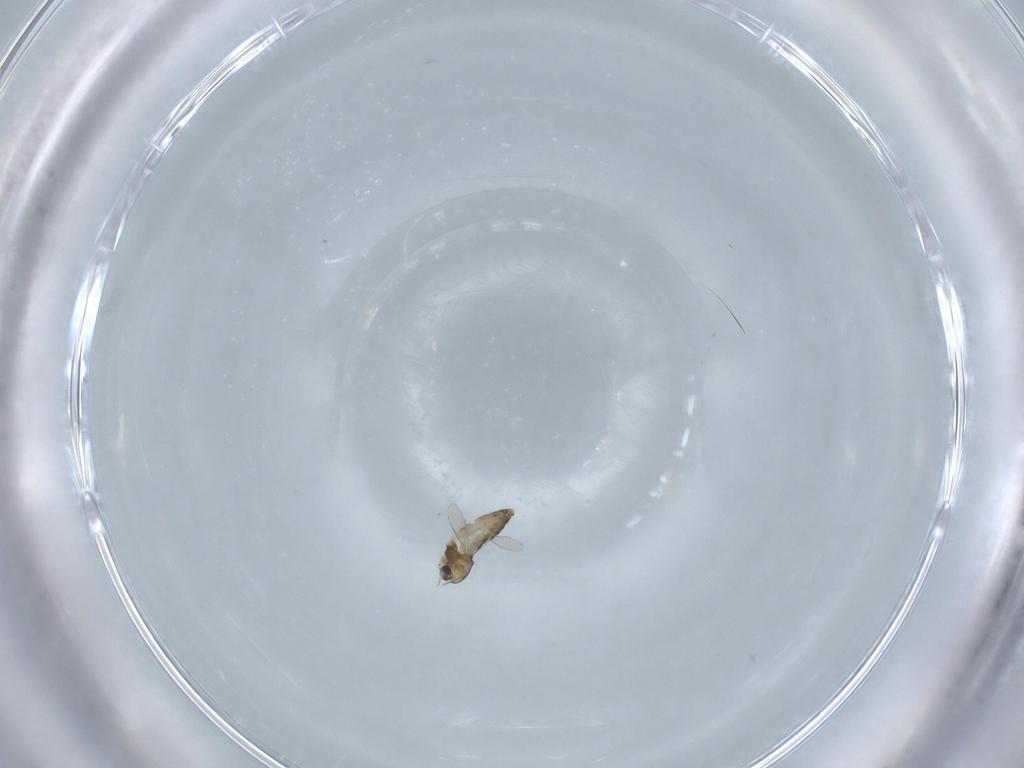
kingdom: Animalia
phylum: Arthropoda
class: Insecta
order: Diptera
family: Chironomidae
